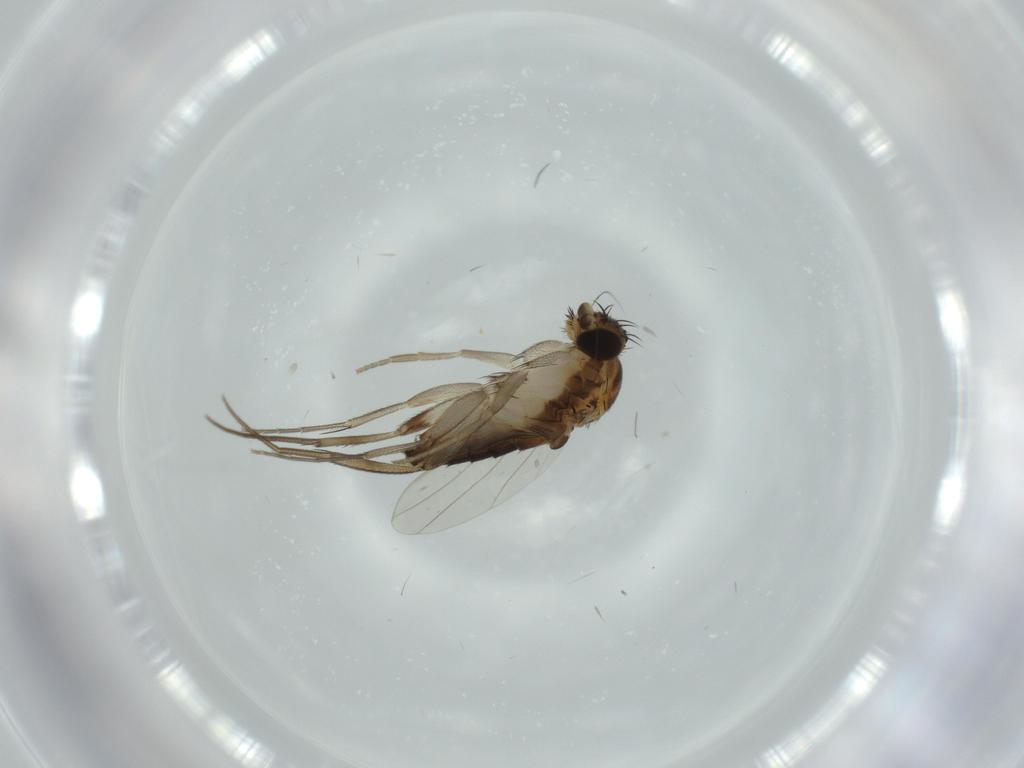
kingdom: Animalia
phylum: Arthropoda
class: Insecta
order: Diptera
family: Phoridae
